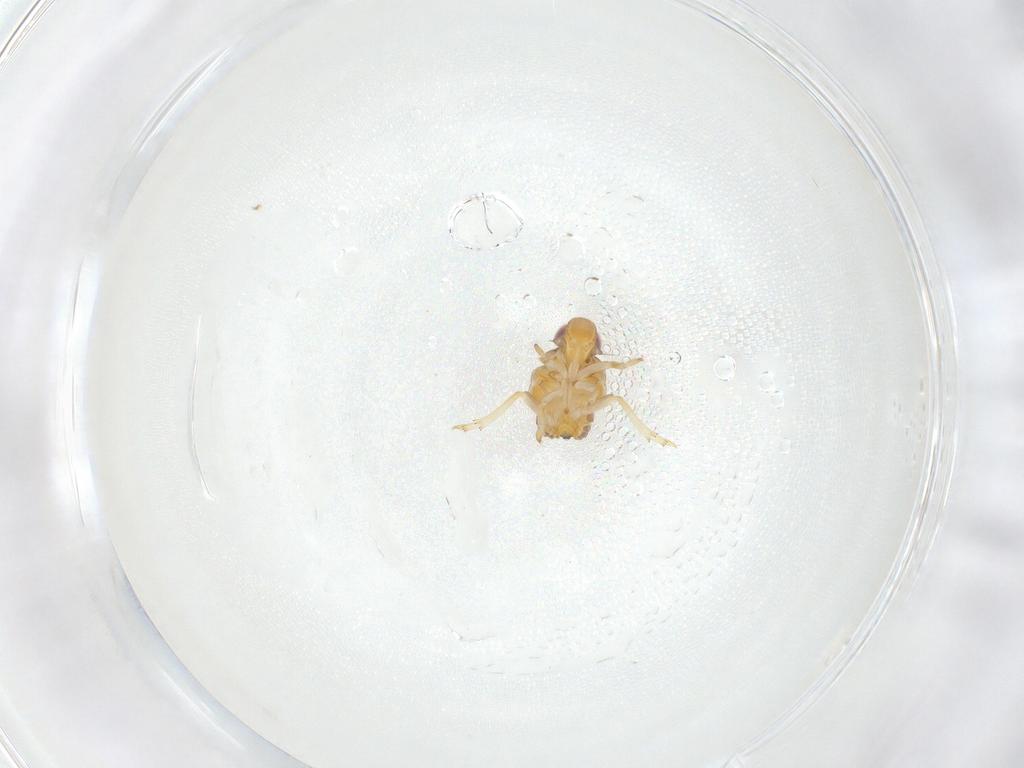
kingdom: Animalia
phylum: Arthropoda
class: Insecta
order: Hemiptera
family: Issidae
